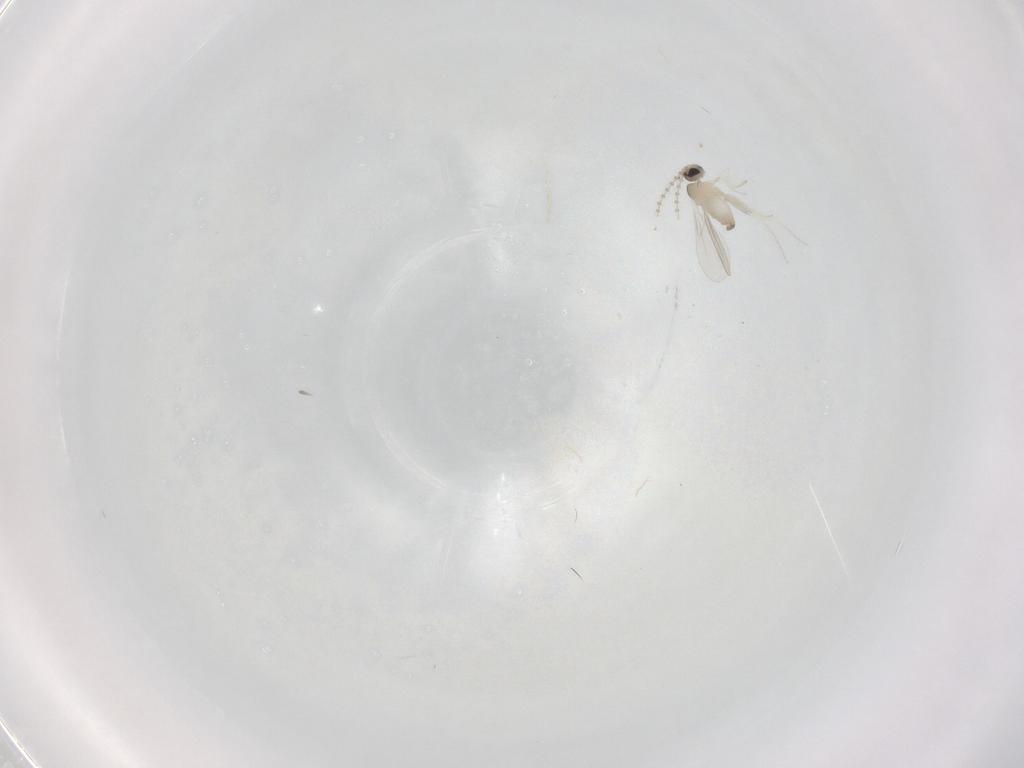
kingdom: Animalia
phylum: Arthropoda
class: Insecta
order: Diptera
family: Cecidomyiidae
